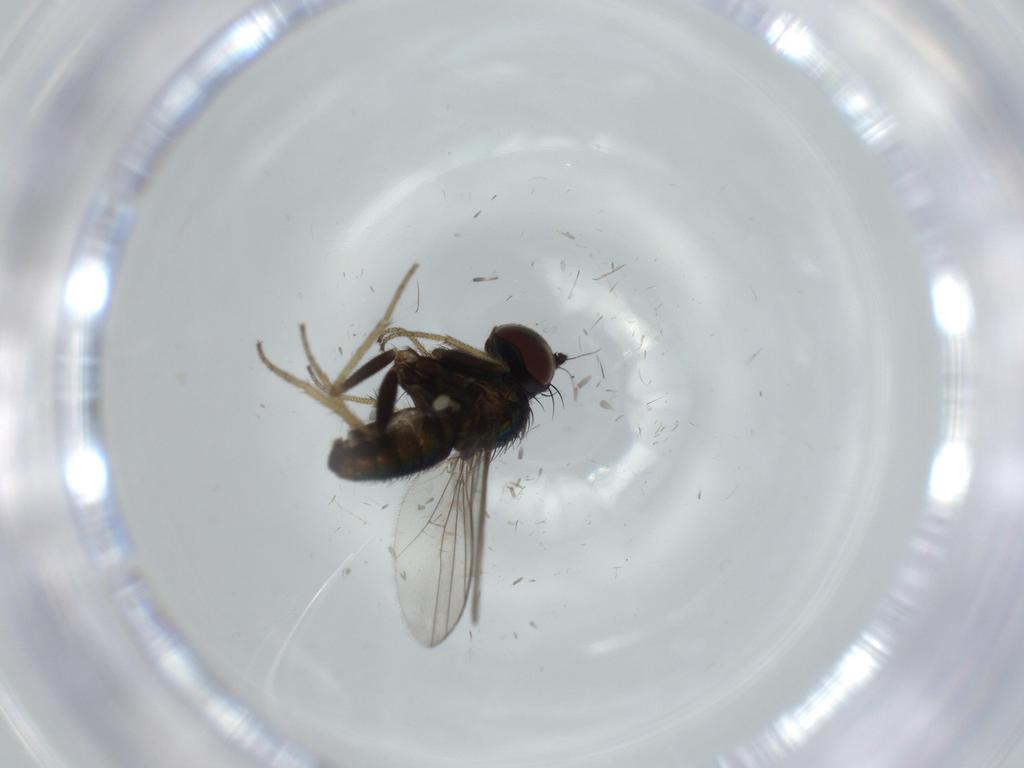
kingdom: Animalia
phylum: Arthropoda
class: Insecta
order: Diptera
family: Dolichopodidae
